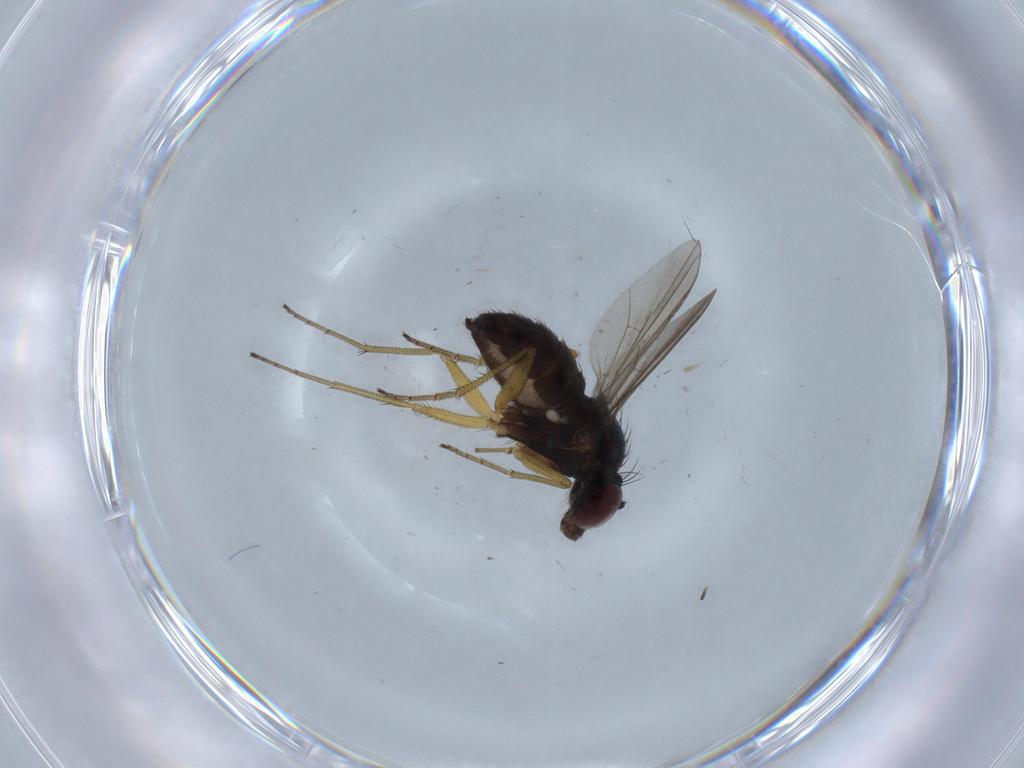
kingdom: Animalia
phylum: Arthropoda
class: Insecta
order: Diptera
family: Dolichopodidae
